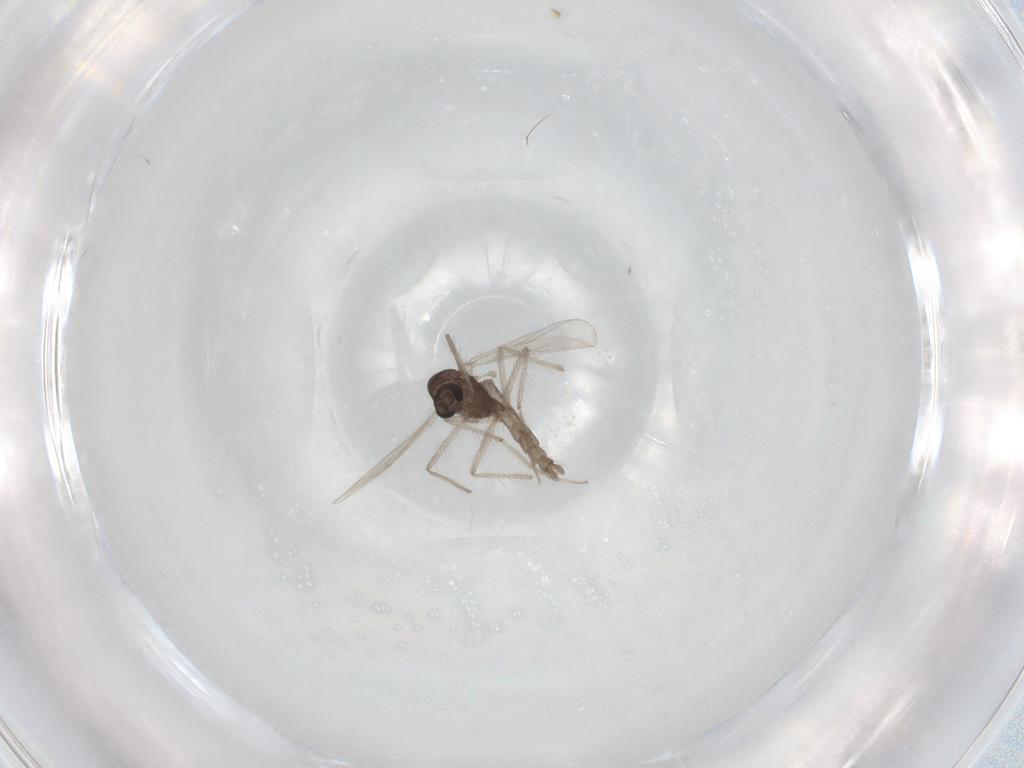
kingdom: Animalia
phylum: Arthropoda
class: Insecta
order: Diptera
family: Chironomidae
